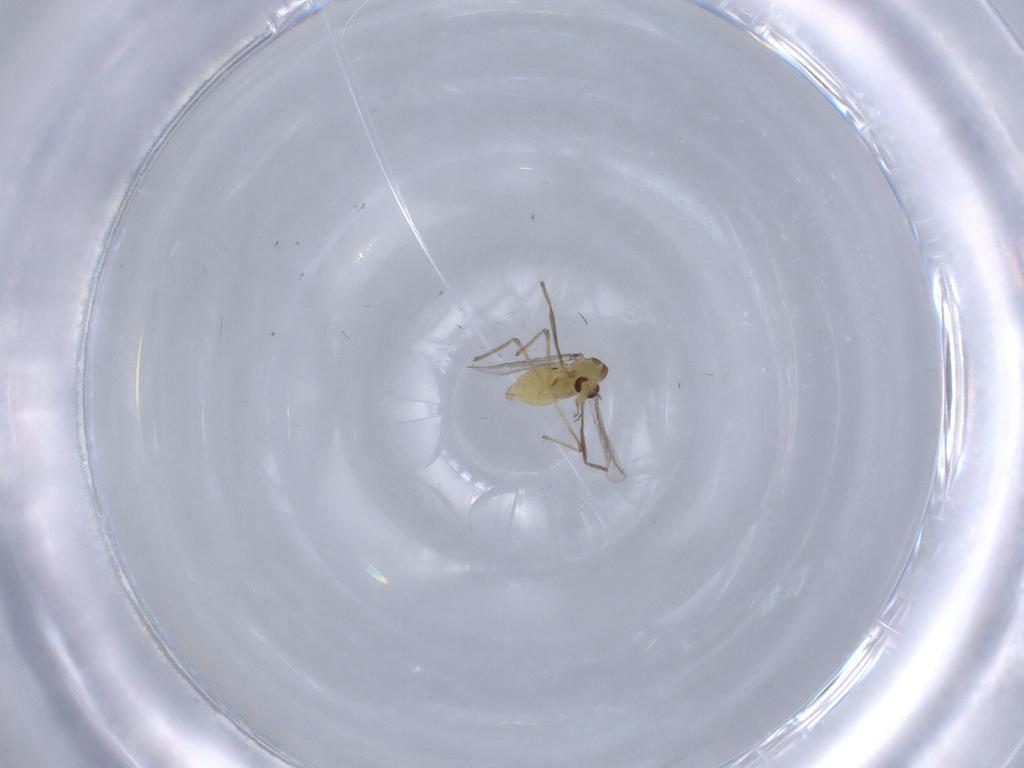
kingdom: Animalia
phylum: Arthropoda
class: Insecta
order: Diptera
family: Chironomidae
